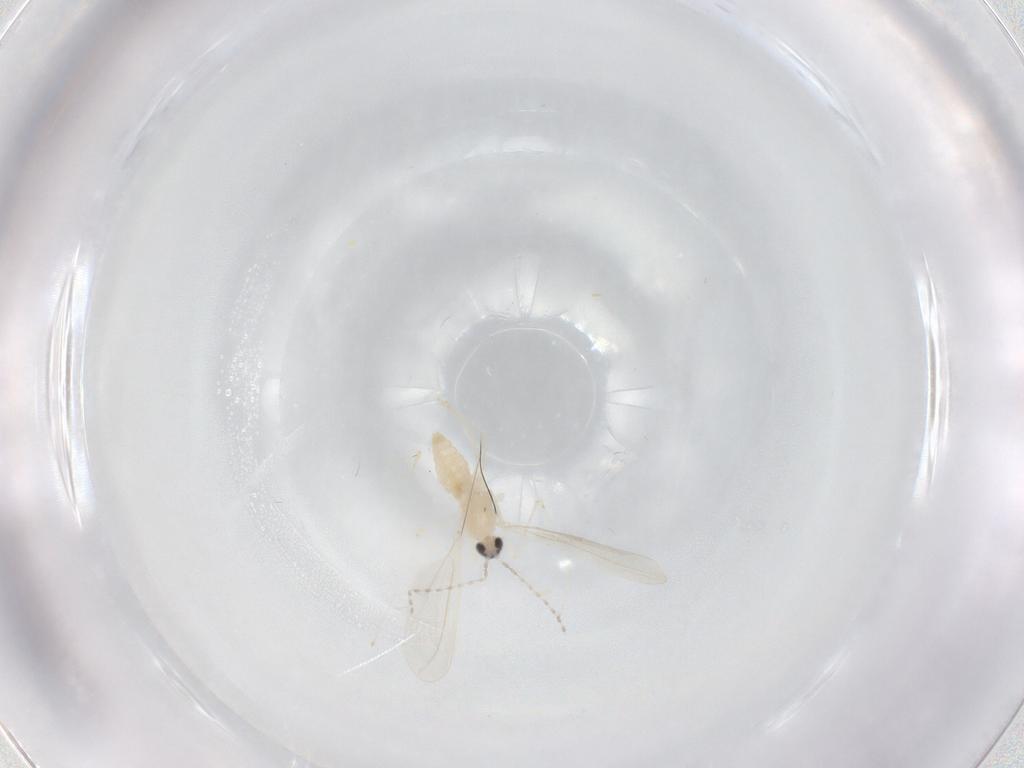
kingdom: Animalia
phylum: Arthropoda
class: Insecta
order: Diptera
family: Cecidomyiidae
